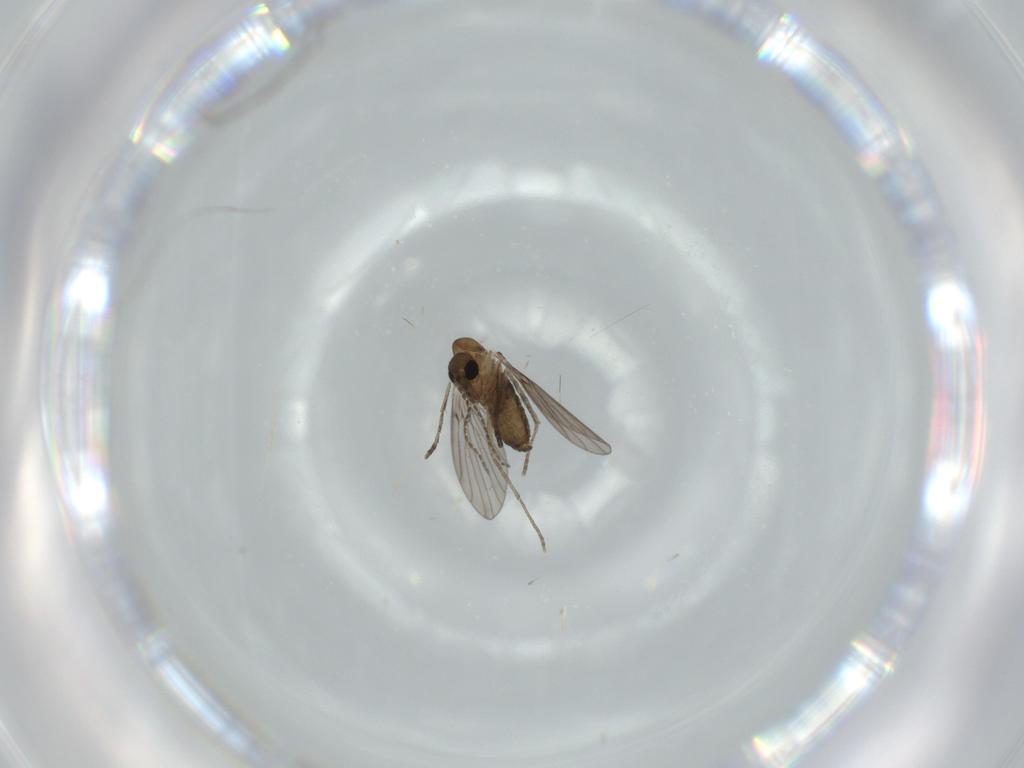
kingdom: Animalia
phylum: Arthropoda
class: Insecta
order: Diptera
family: Psychodidae
